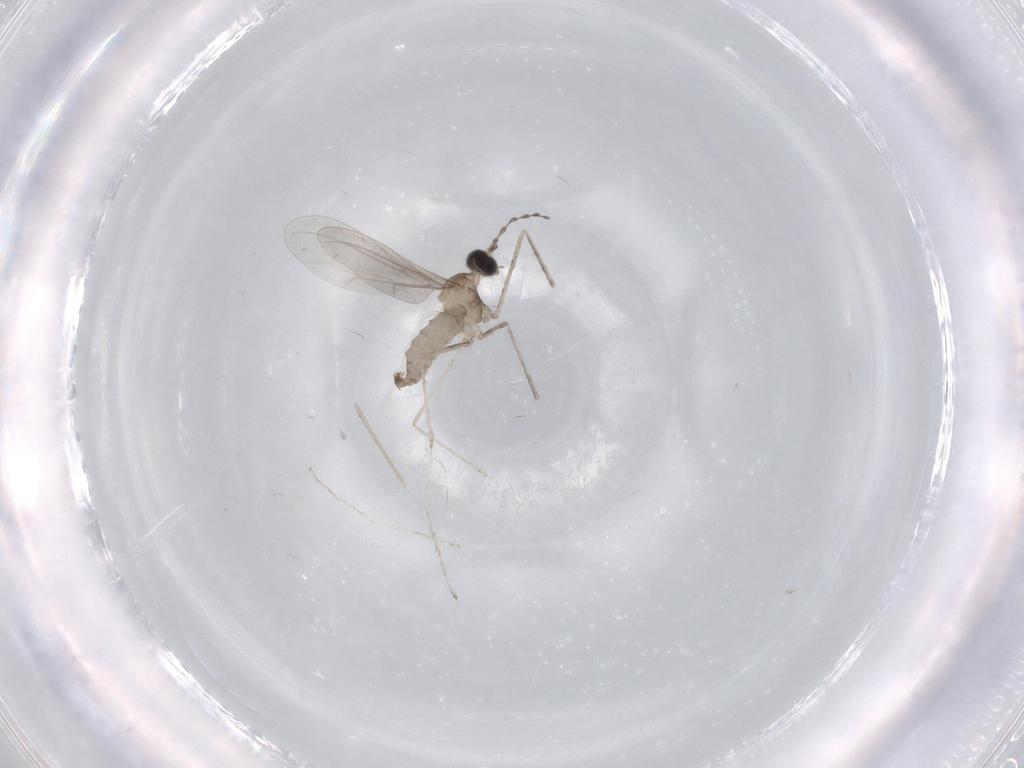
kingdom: Animalia
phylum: Arthropoda
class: Insecta
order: Diptera
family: Cecidomyiidae
